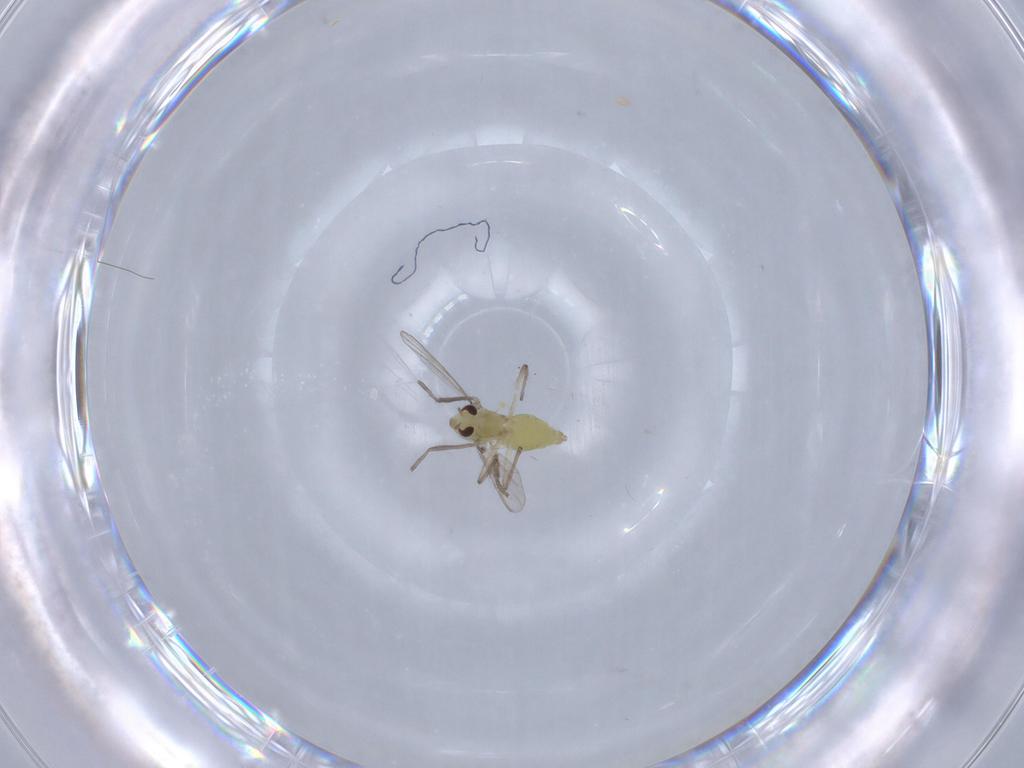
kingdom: Animalia
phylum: Arthropoda
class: Insecta
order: Diptera
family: Chironomidae
